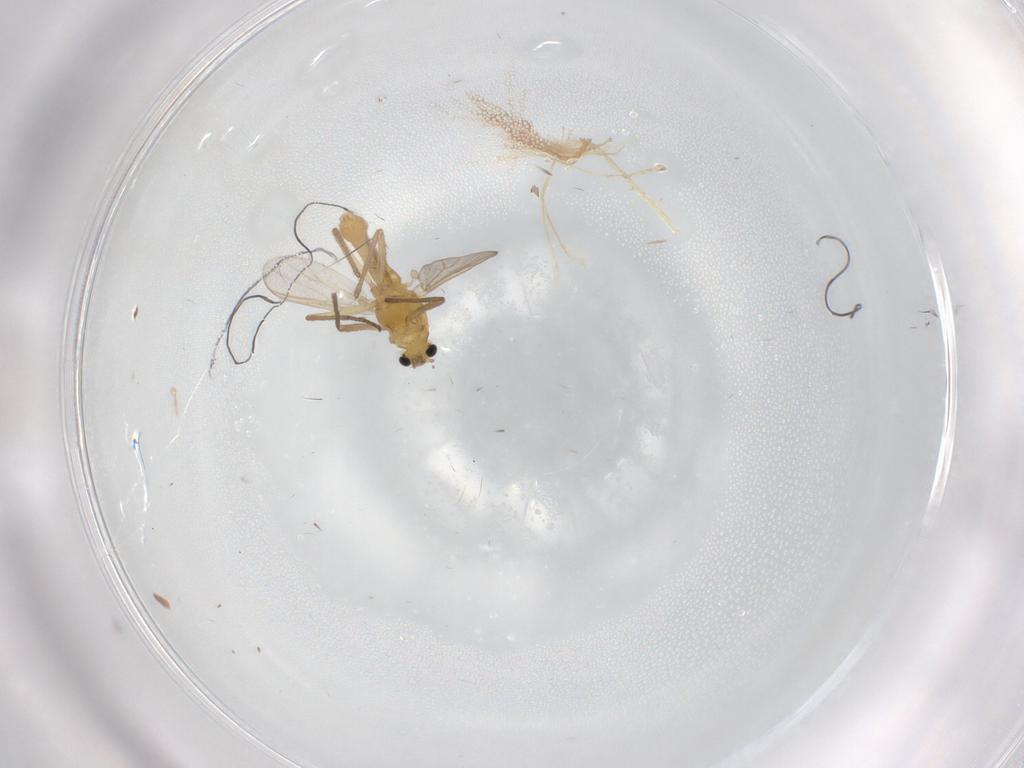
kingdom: Animalia
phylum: Arthropoda
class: Insecta
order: Diptera
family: Chironomidae
